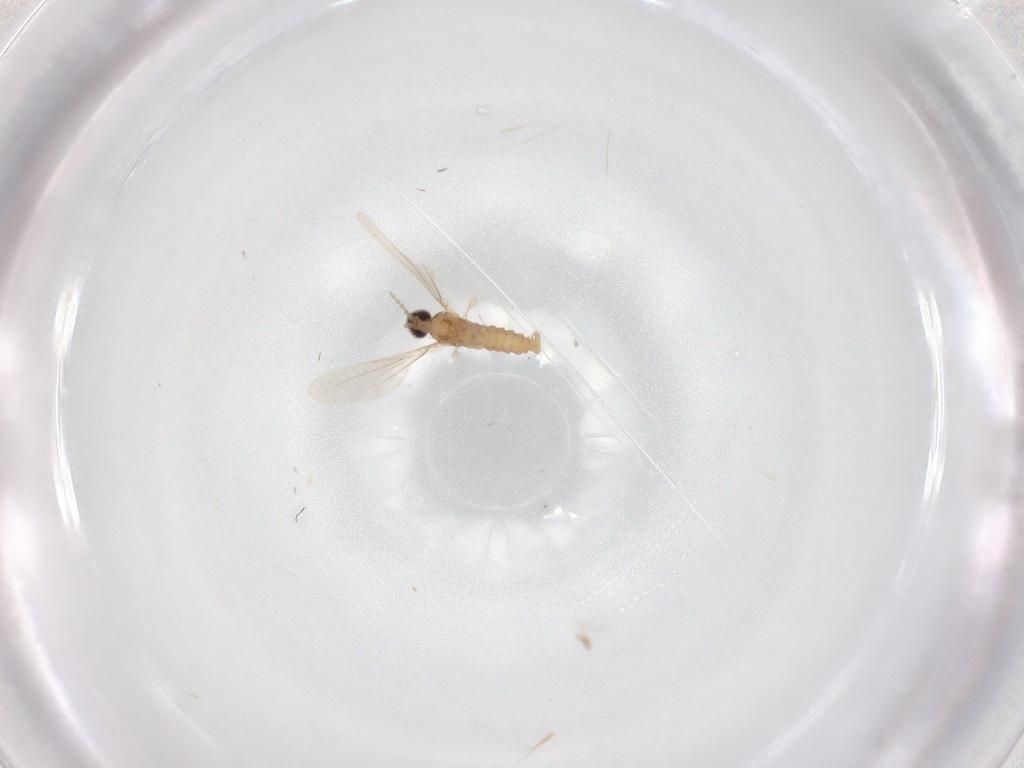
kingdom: Animalia
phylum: Arthropoda
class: Insecta
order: Diptera
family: Cecidomyiidae
